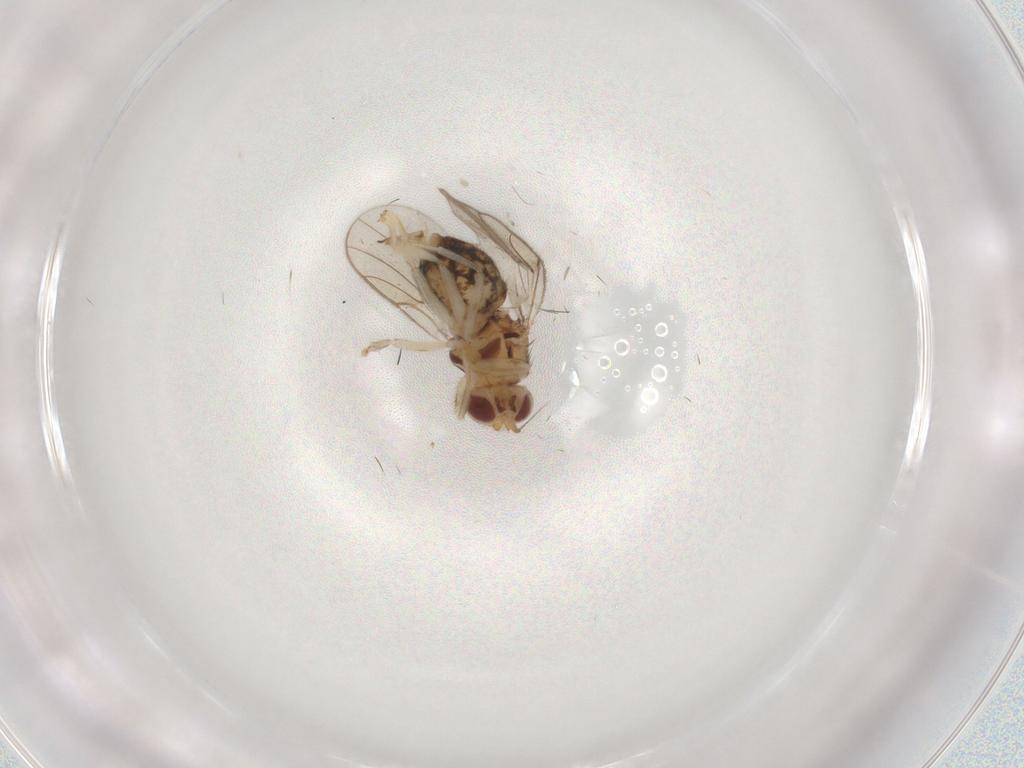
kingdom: Animalia
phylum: Arthropoda
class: Insecta
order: Diptera
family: Chloropidae
